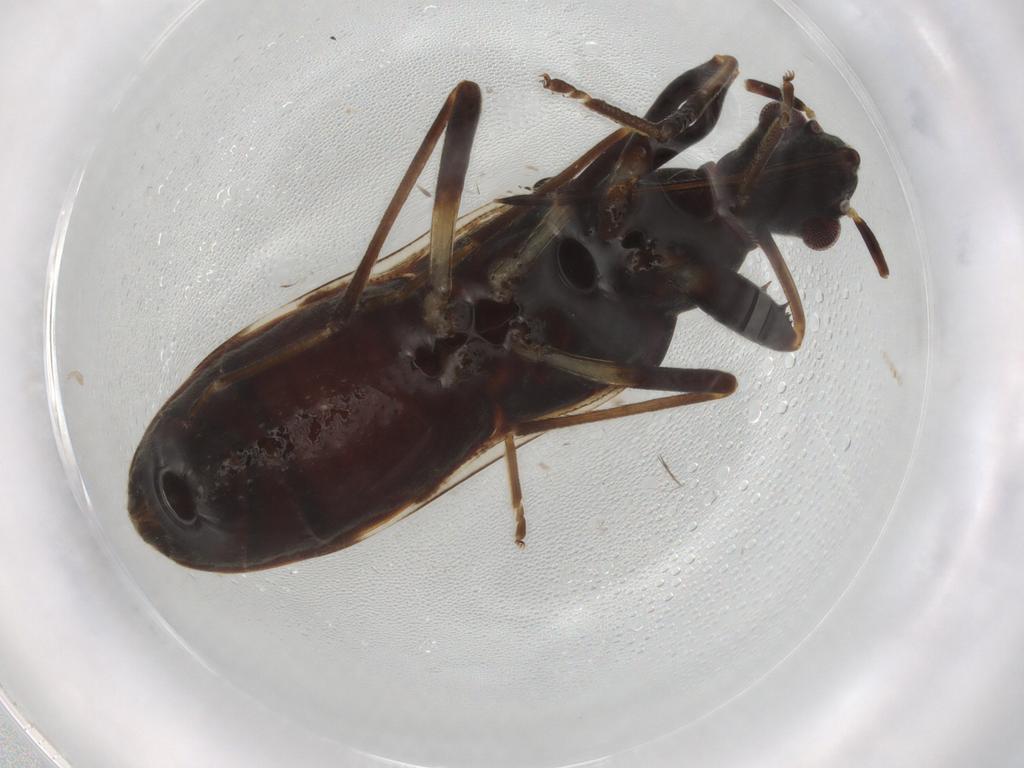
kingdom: Animalia
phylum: Arthropoda
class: Insecta
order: Hemiptera
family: Rhyparochromidae
